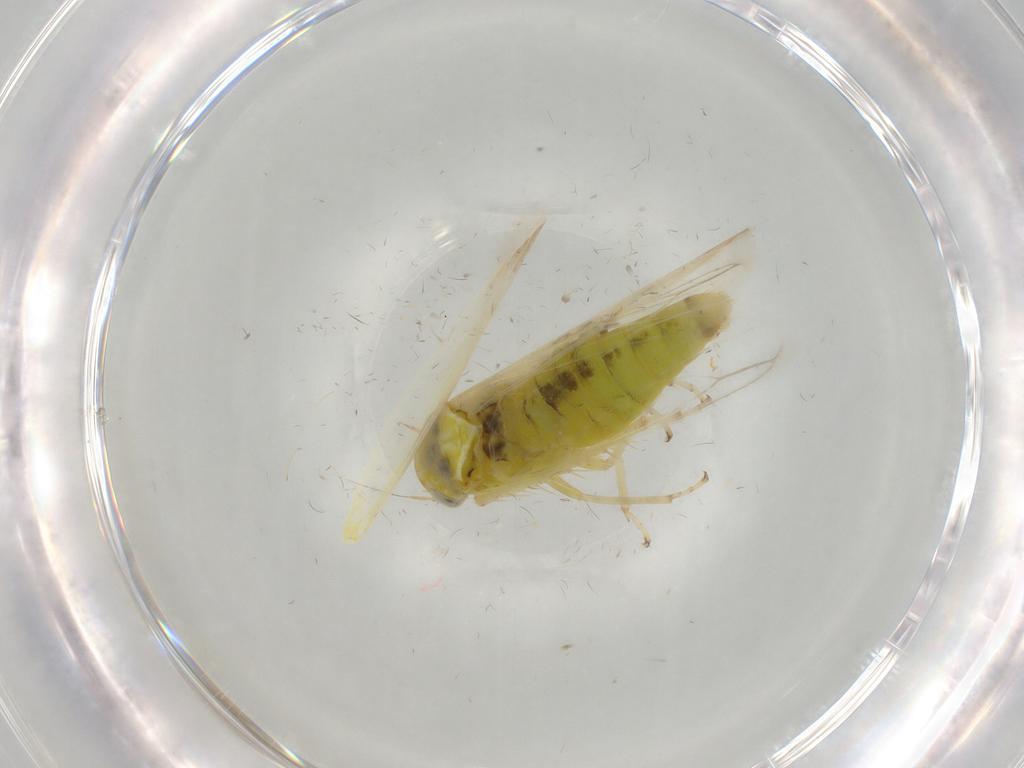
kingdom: Animalia
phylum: Arthropoda
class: Insecta
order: Hemiptera
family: Cicadellidae
